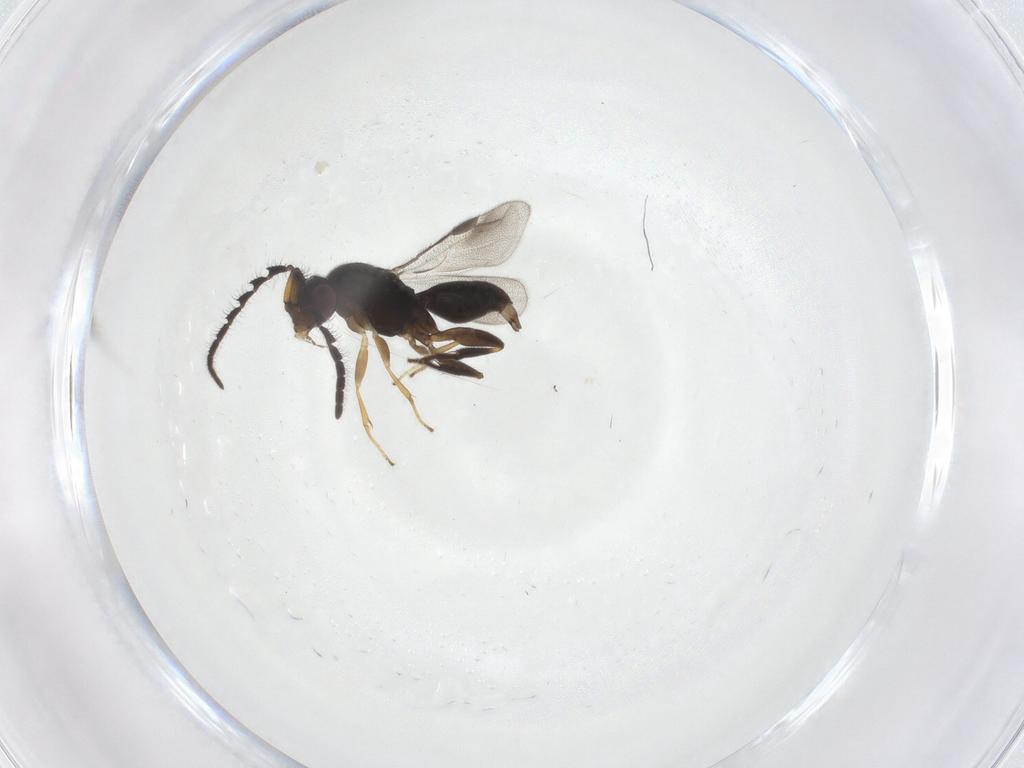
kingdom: Animalia
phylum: Arthropoda
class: Insecta
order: Hymenoptera
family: Megaspilidae
